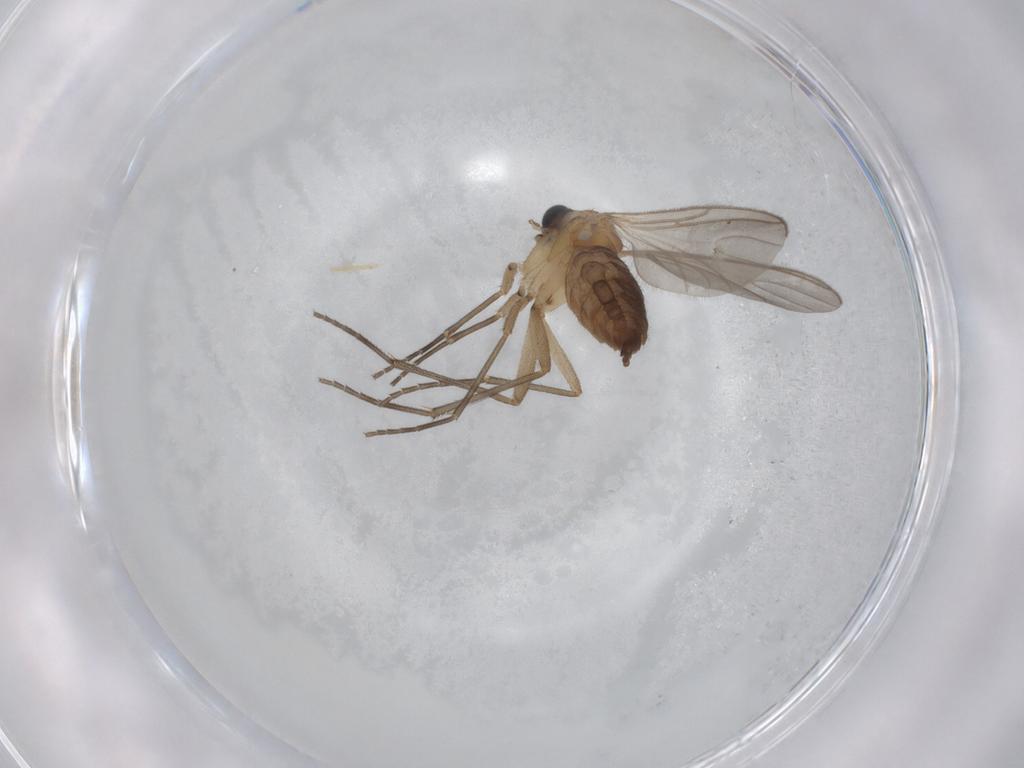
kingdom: Animalia
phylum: Arthropoda
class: Insecta
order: Diptera
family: Sciaridae
